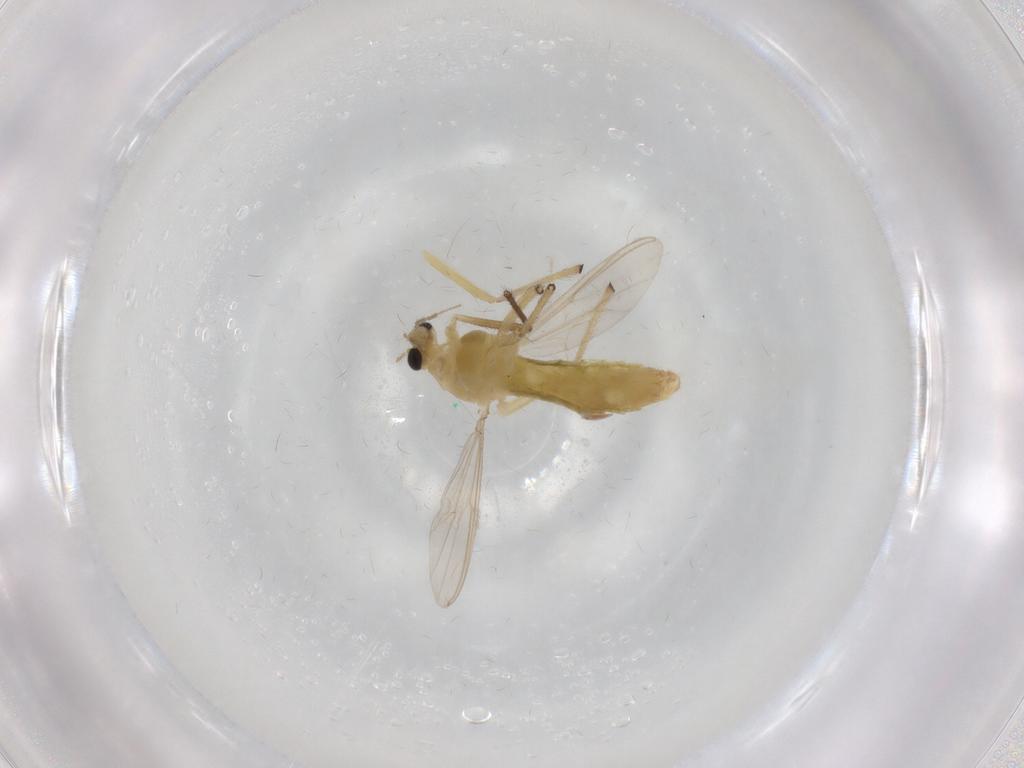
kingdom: Animalia
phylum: Arthropoda
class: Insecta
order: Diptera
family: Chironomidae
